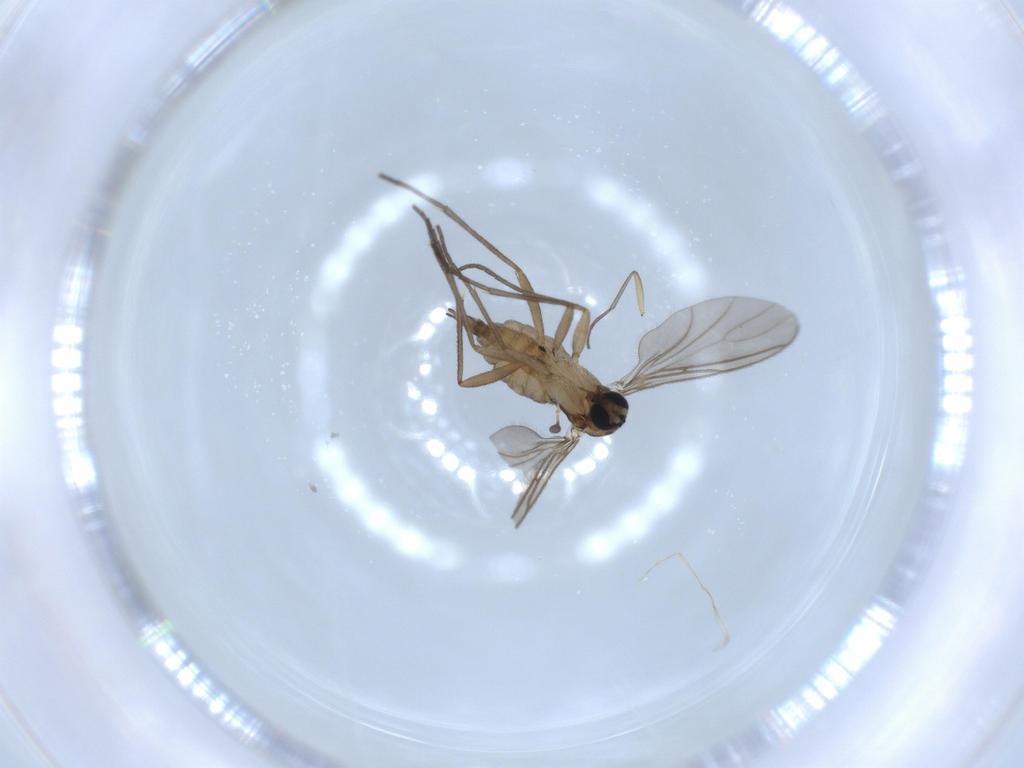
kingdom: Animalia
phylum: Arthropoda
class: Insecta
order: Diptera
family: Sciaridae
